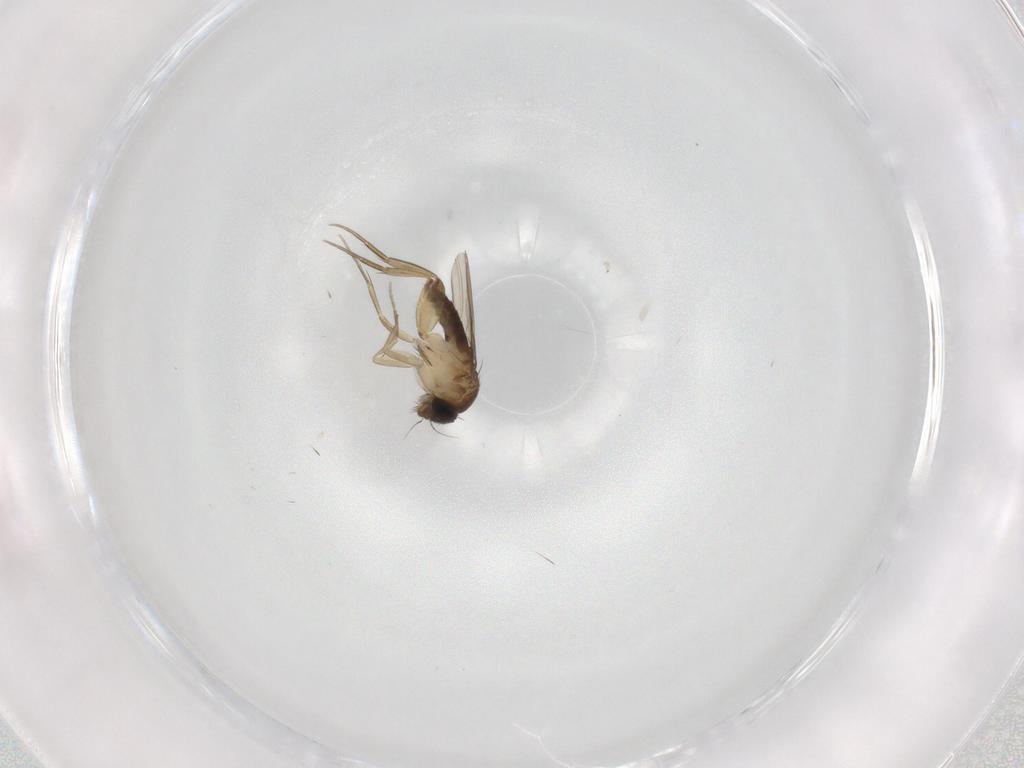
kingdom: Animalia
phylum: Arthropoda
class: Insecta
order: Diptera
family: Phoridae
